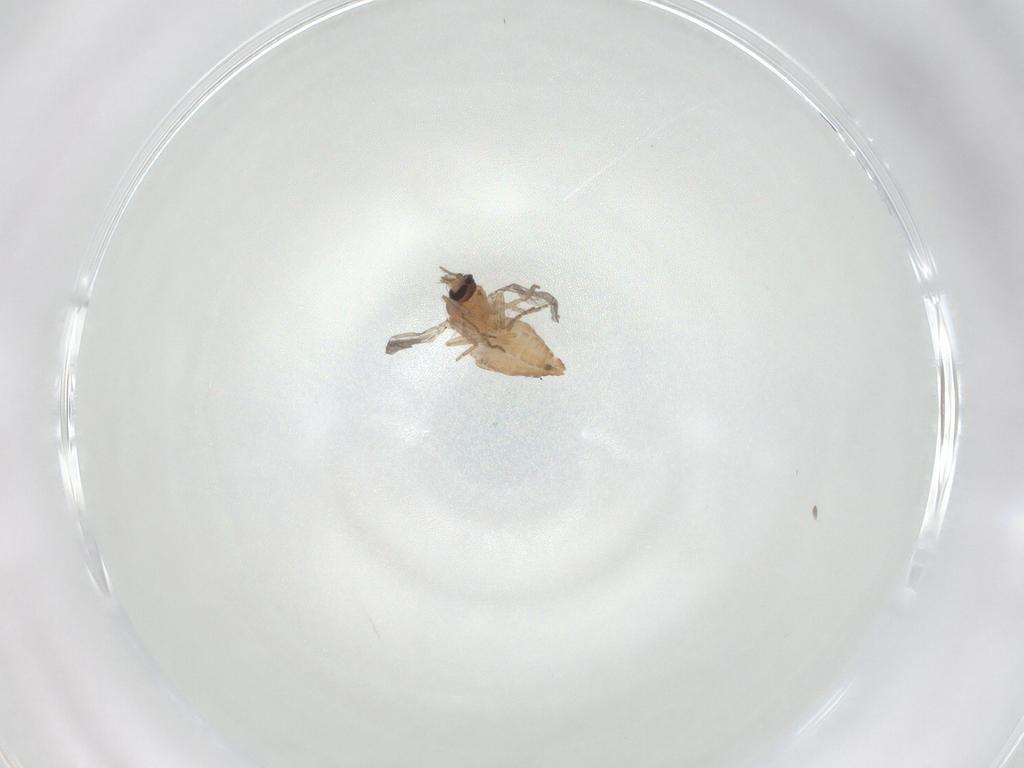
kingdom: Animalia
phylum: Arthropoda
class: Insecta
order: Diptera
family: Ceratopogonidae
